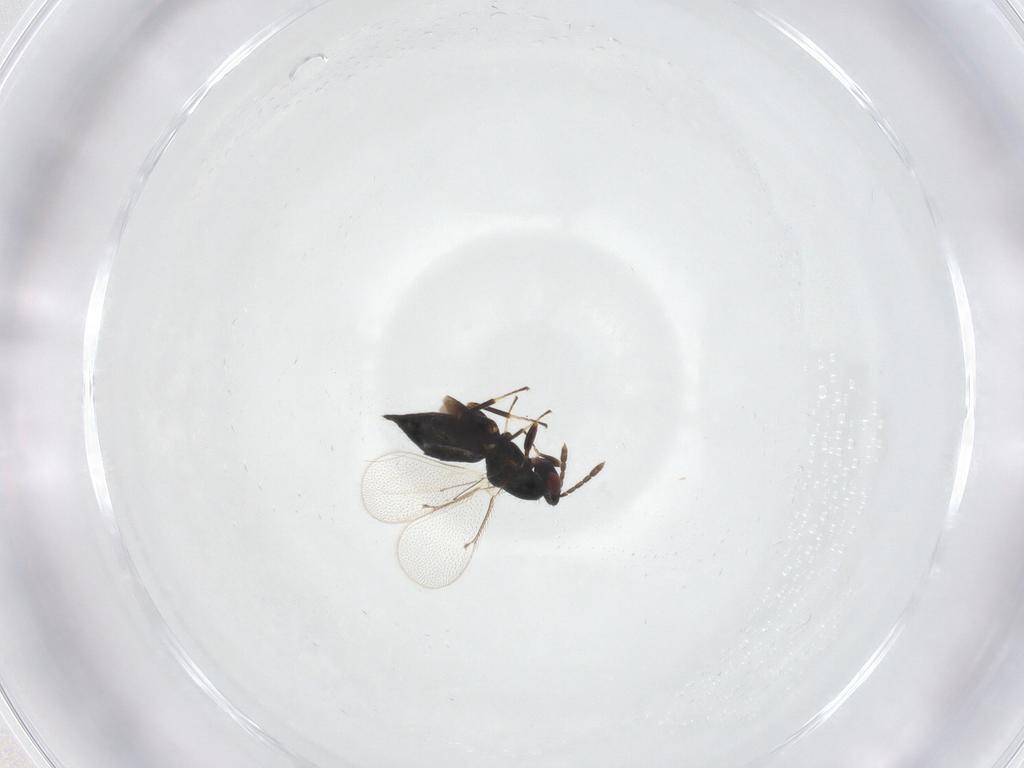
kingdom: Animalia
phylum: Arthropoda
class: Insecta
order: Hymenoptera
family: Eulophidae
